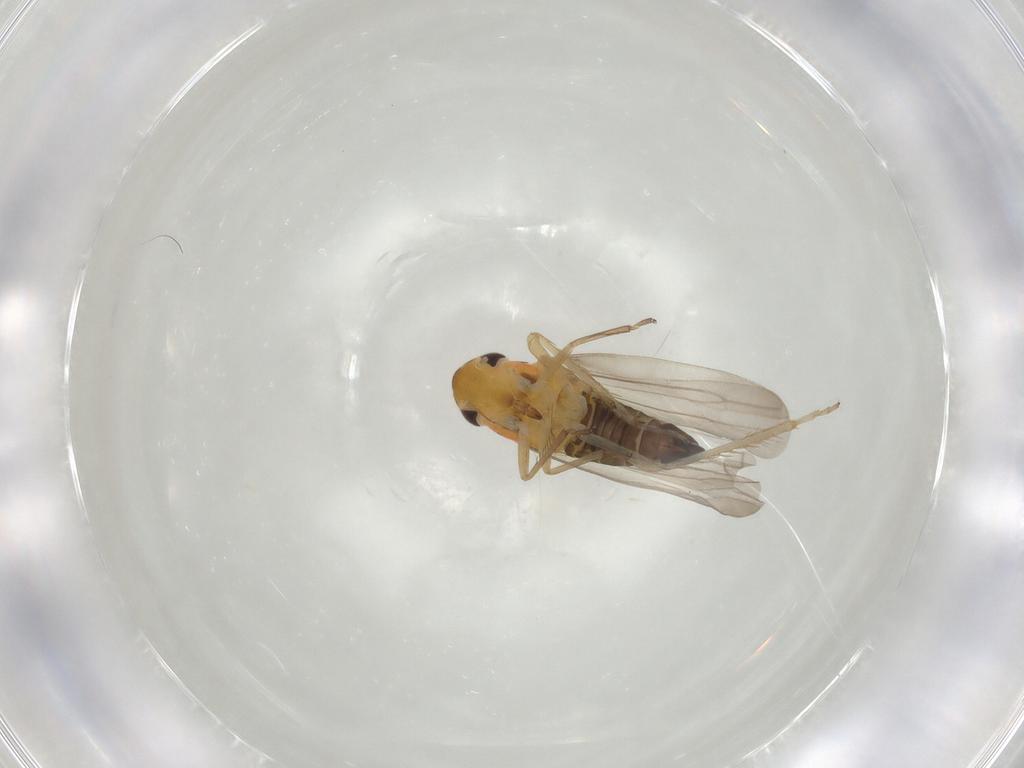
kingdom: Animalia
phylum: Arthropoda
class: Insecta
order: Hemiptera
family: Cicadellidae
